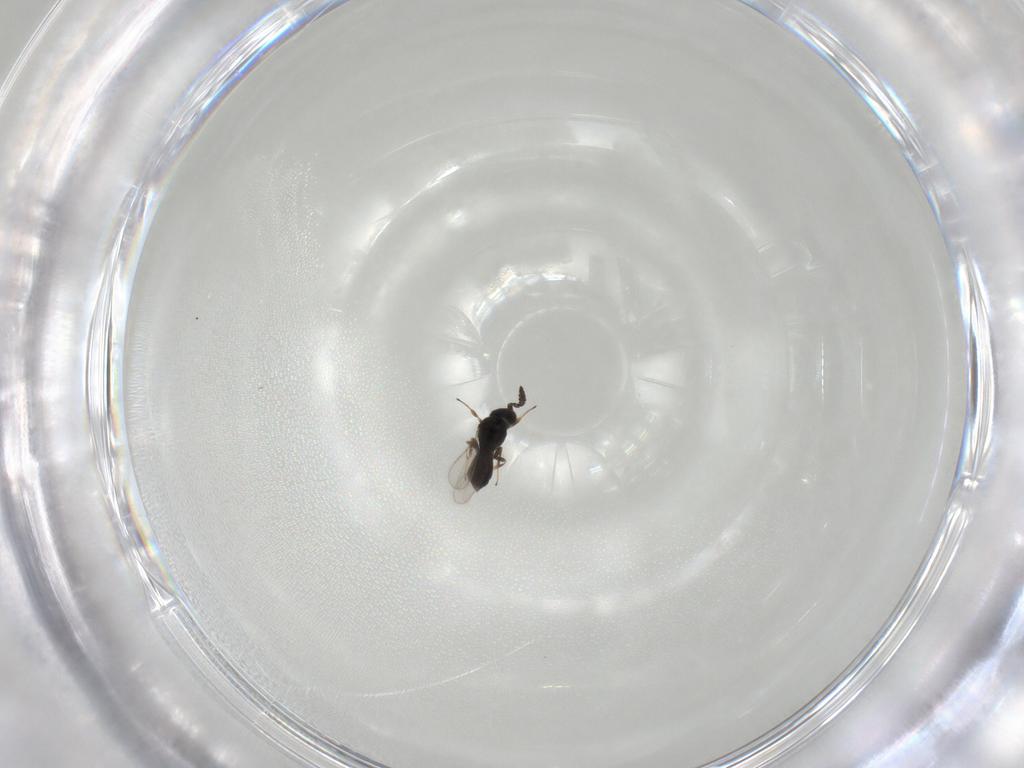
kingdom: Animalia
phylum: Arthropoda
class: Insecta
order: Hymenoptera
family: Scelionidae
